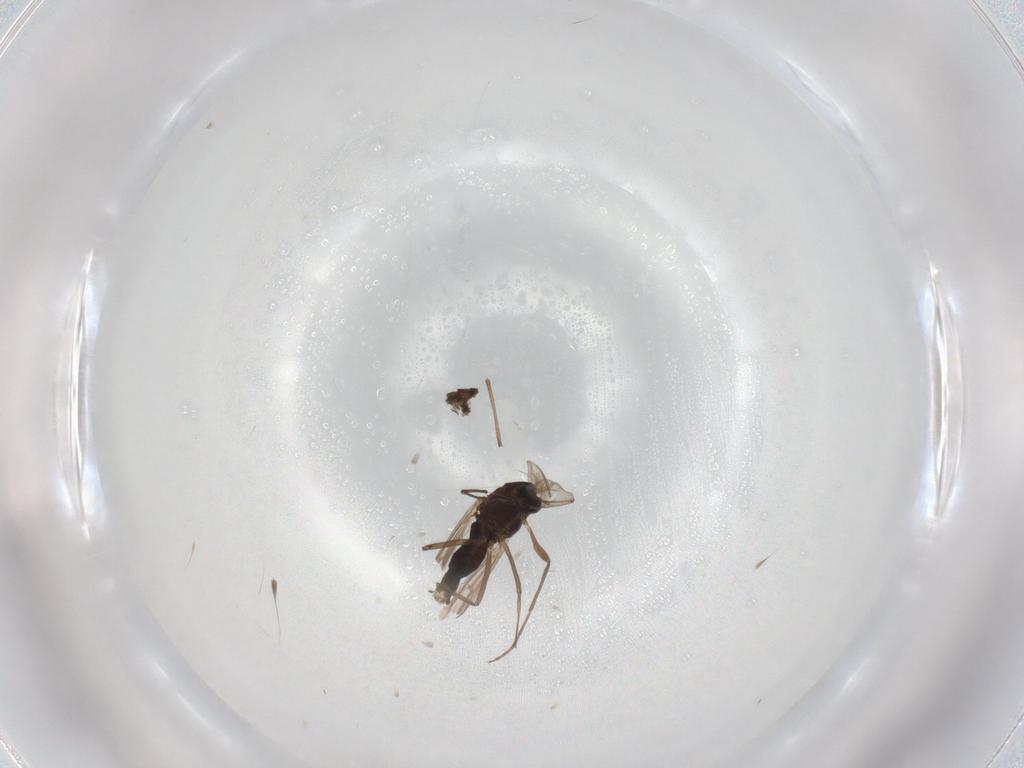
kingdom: Animalia
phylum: Arthropoda
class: Insecta
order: Diptera
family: Chironomidae
